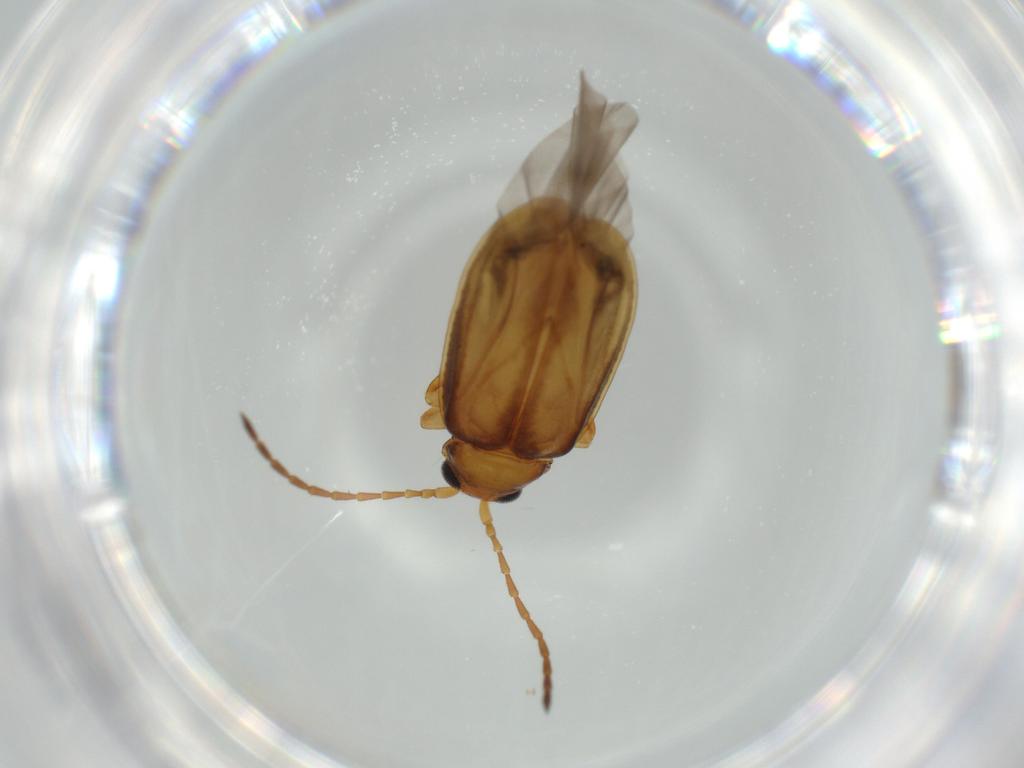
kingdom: Animalia
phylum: Arthropoda
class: Insecta
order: Coleoptera
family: Chrysomelidae
